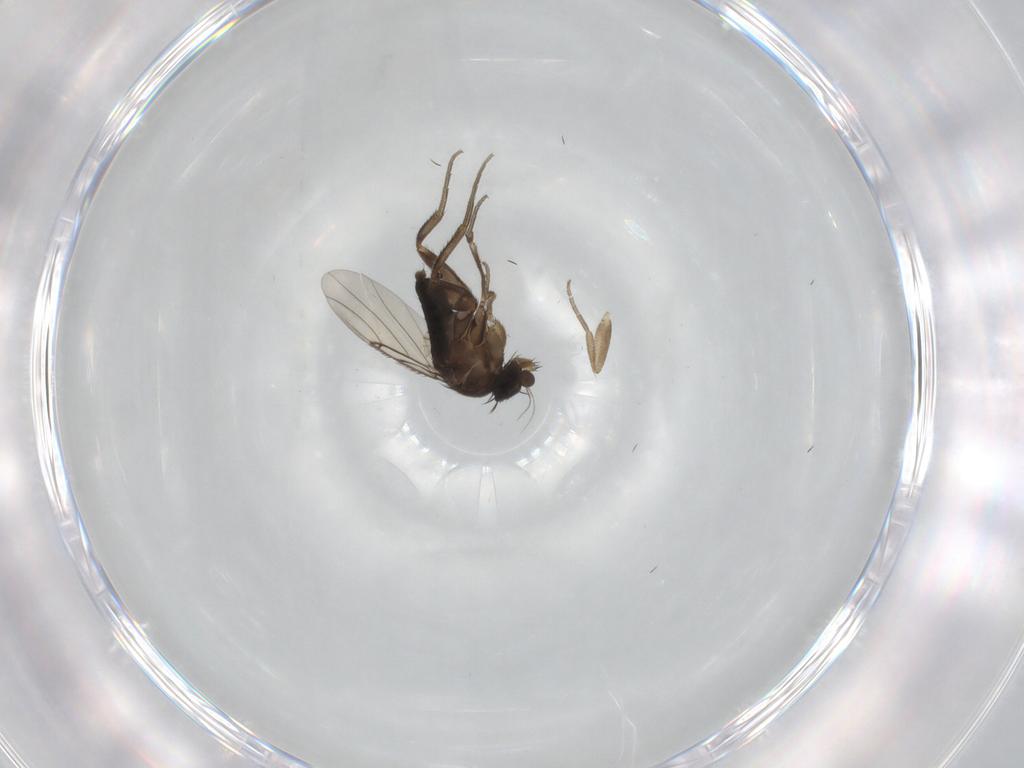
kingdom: Animalia
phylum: Arthropoda
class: Insecta
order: Diptera
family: Phoridae
